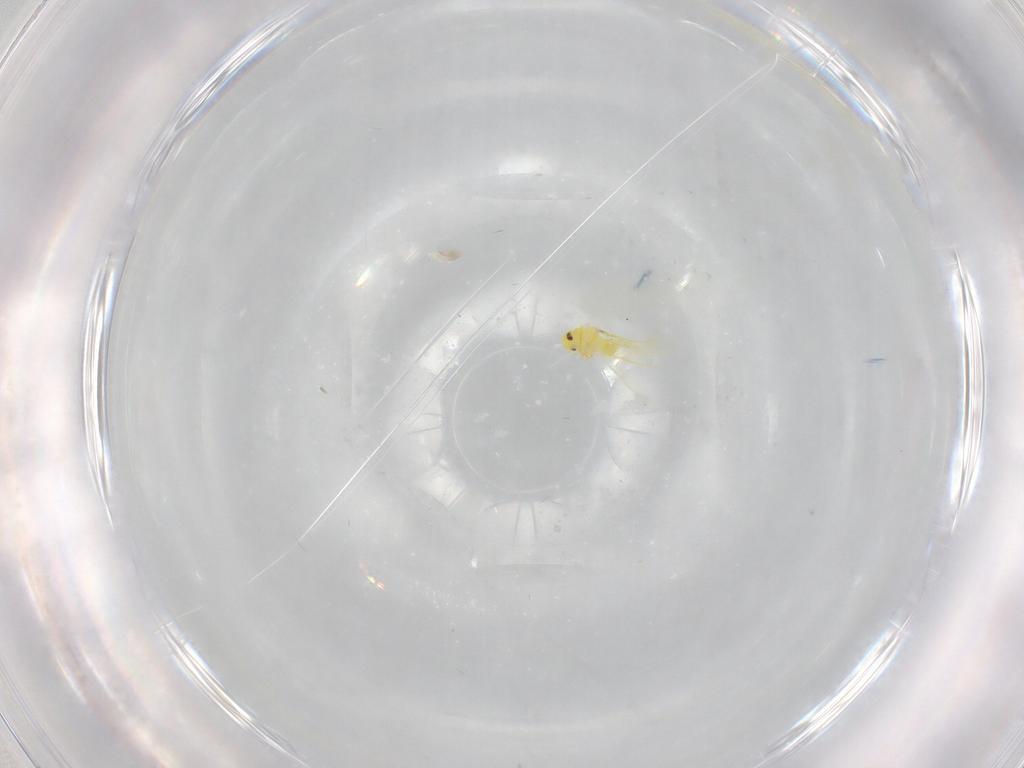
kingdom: Animalia
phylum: Arthropoda
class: Insecta
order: Hemiptera
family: Aleyrodidae
